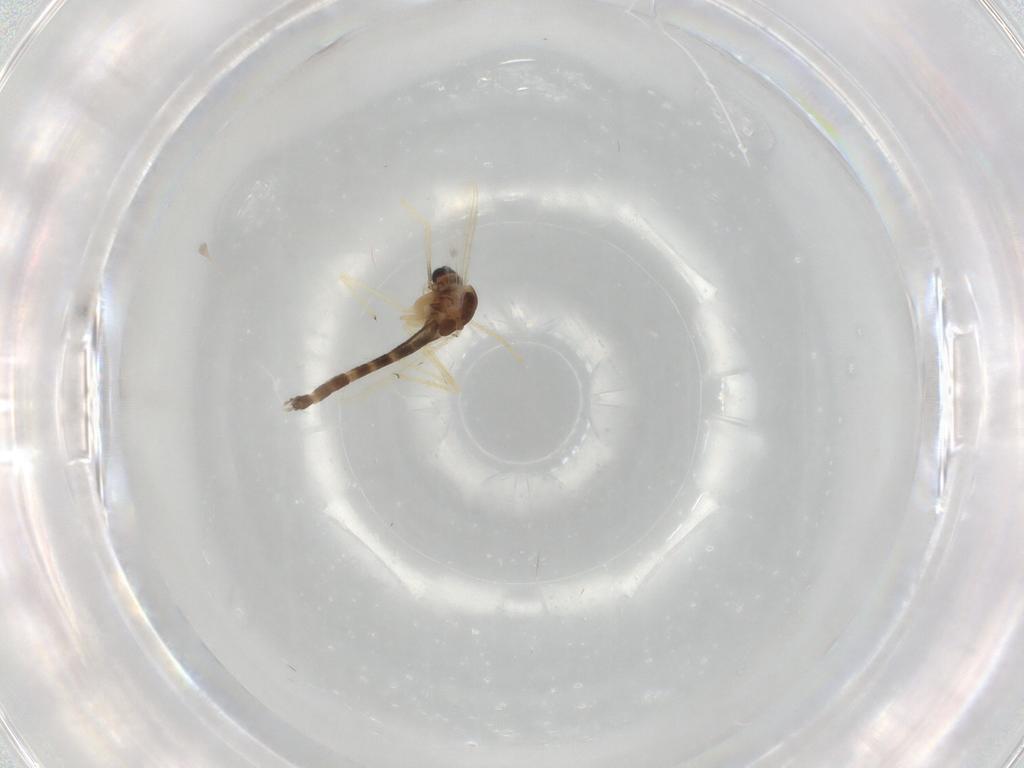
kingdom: Animalia
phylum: Arthropoda
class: Insecta
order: Diptera
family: Chironomidae
